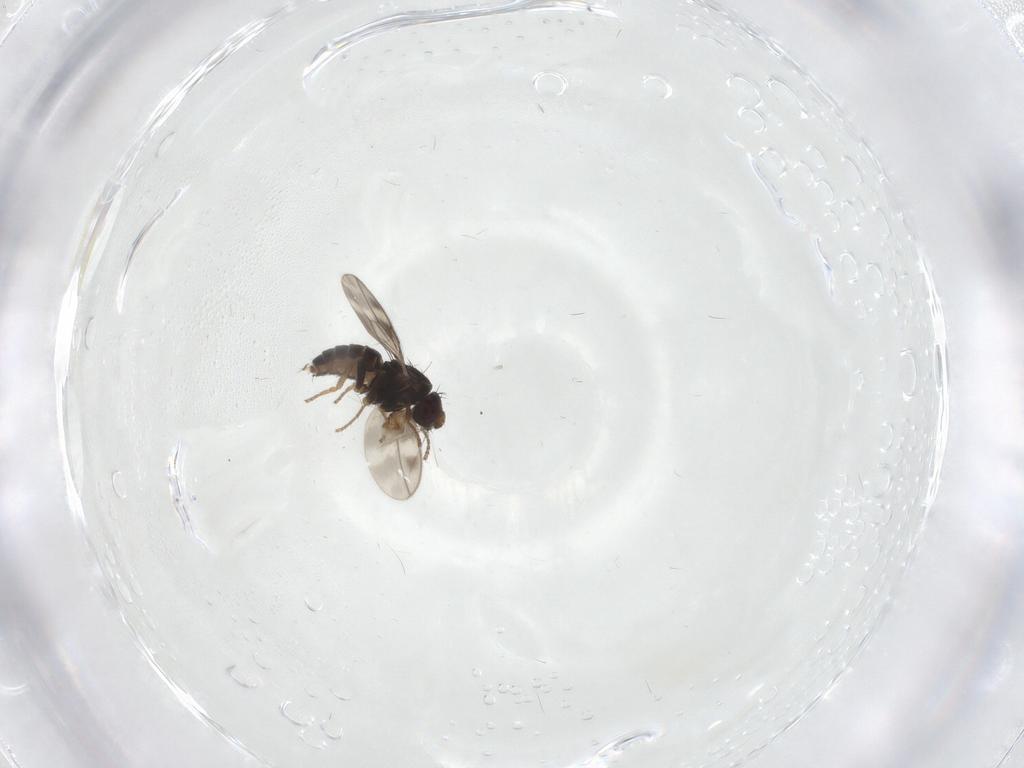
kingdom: Animalia
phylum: Arthropoda
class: Insecta
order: Diptera
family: Sphaeroceridae
